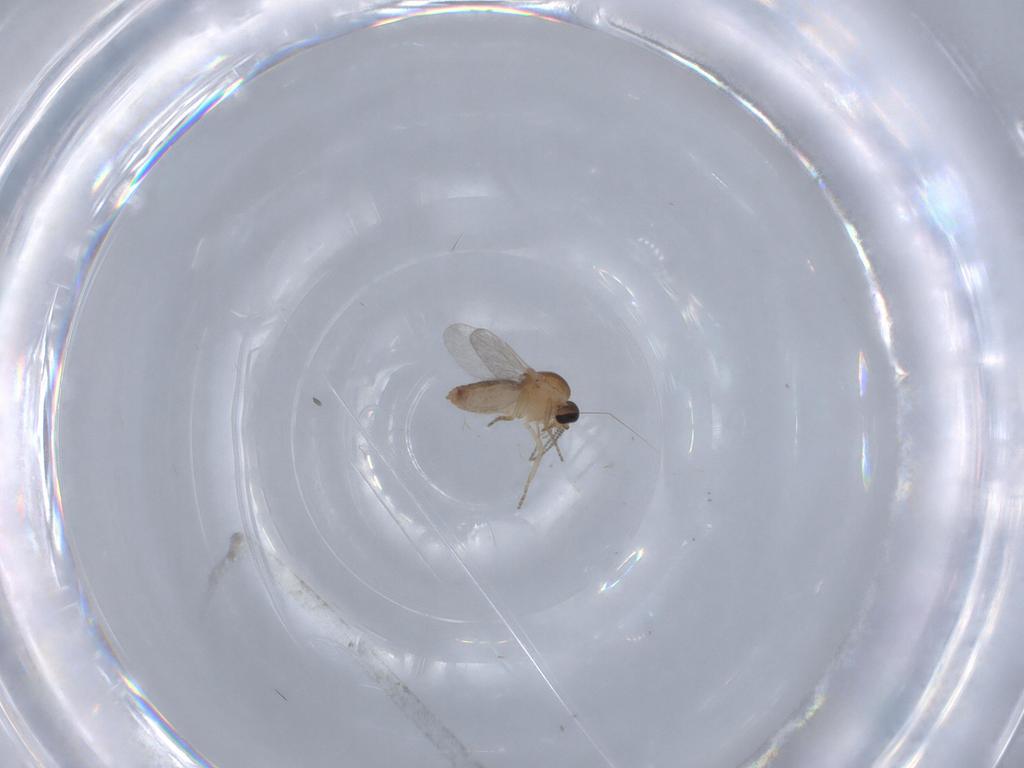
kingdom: Animalia
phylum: Arthropoda
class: Insecta
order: Diptera
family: Ceratopogonidae
